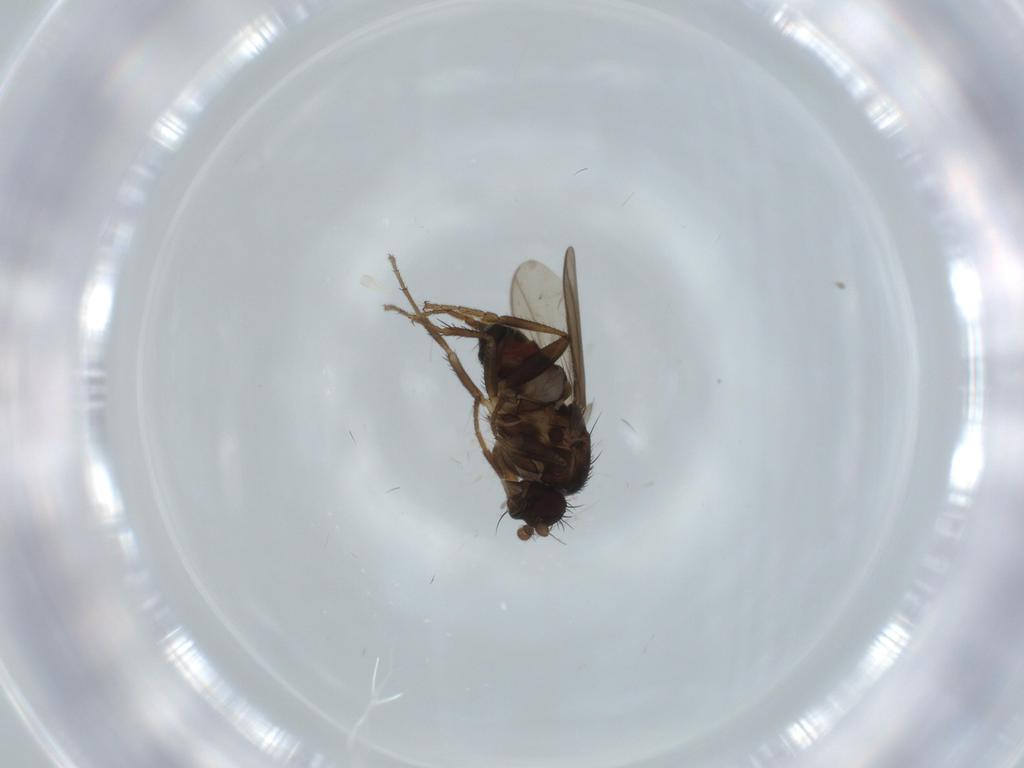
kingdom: Animalia
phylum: Arthropoda
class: Insecta
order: Diptera
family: Sphaeroceridae
